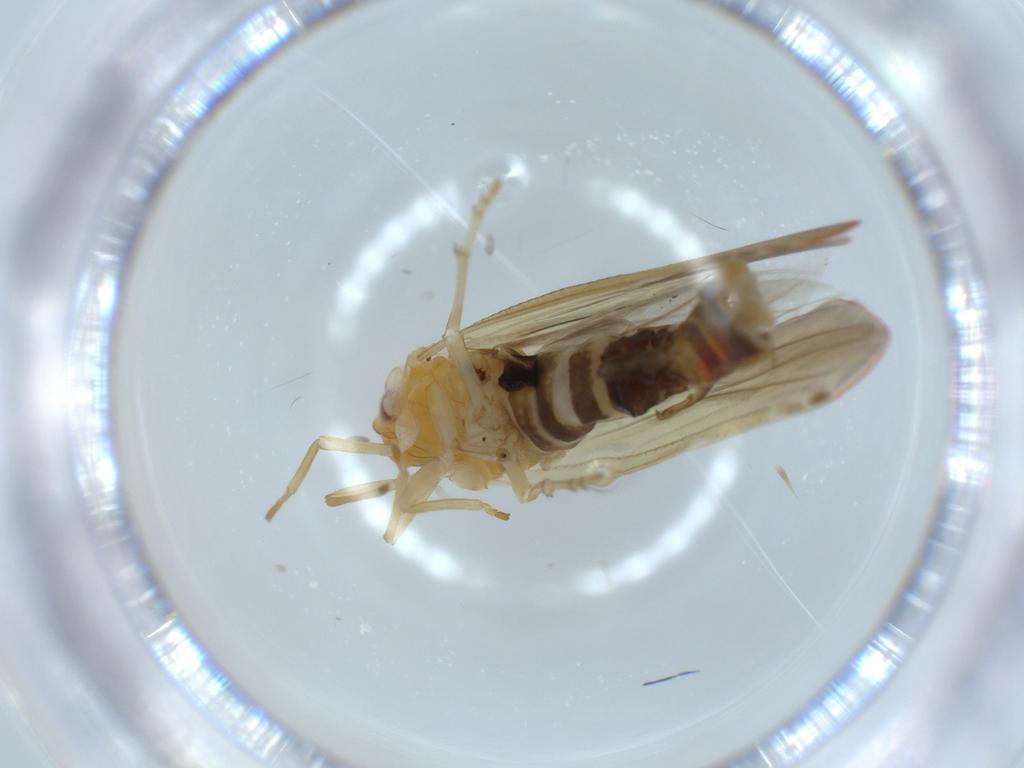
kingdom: Animalia
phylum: Arthropoda
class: Insecta
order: Hemiptera
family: Derbidae
